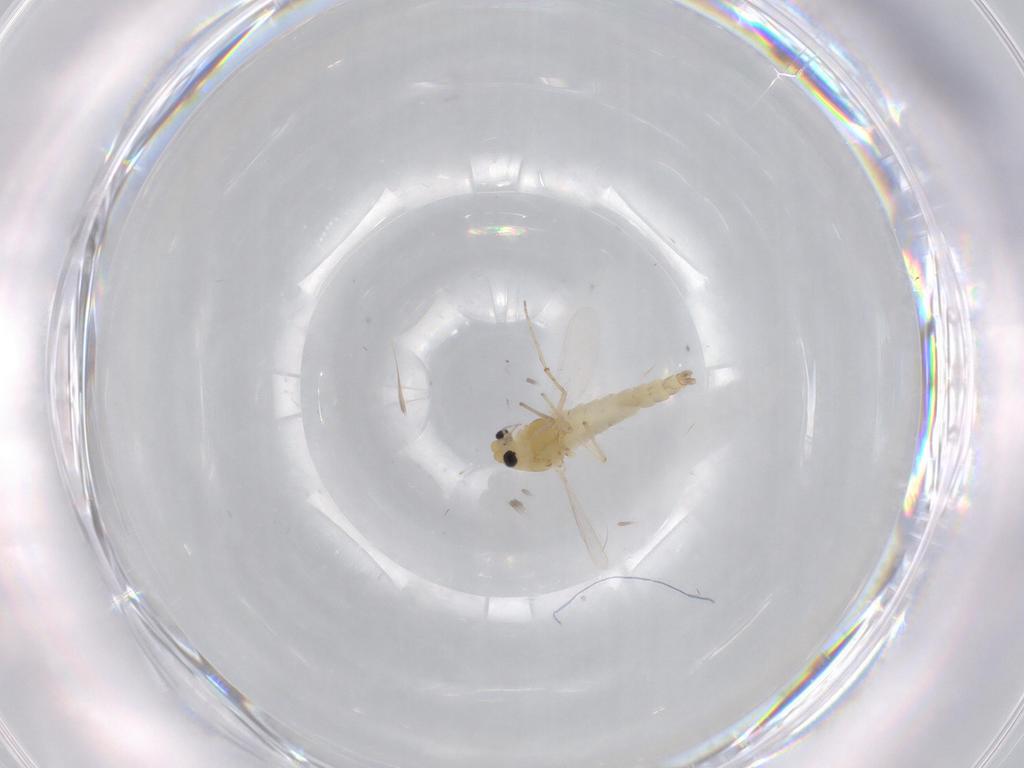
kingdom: Animalia
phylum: Arthropoda
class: Insecta
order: Diptera
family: Chironomidae
